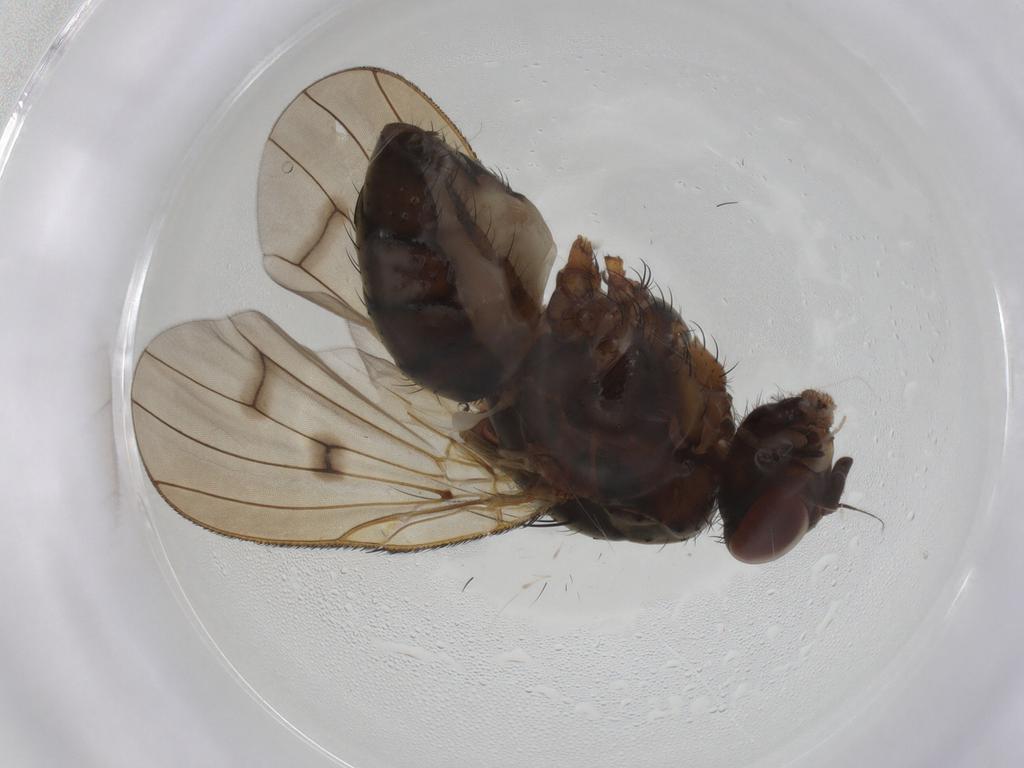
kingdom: Animalia
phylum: Arthropoda
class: Insecta
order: Diptera
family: Anthomyiidae
